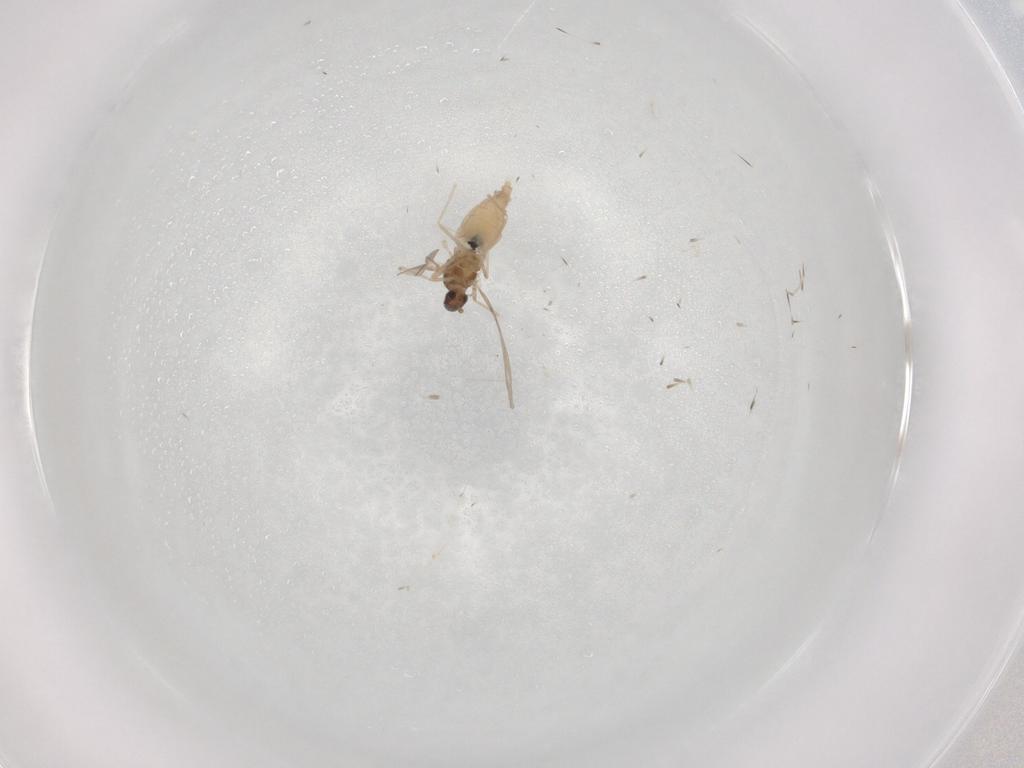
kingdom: Animalia
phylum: Arthropoda
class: Insecta
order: Diptera
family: Cecidomyiidae
